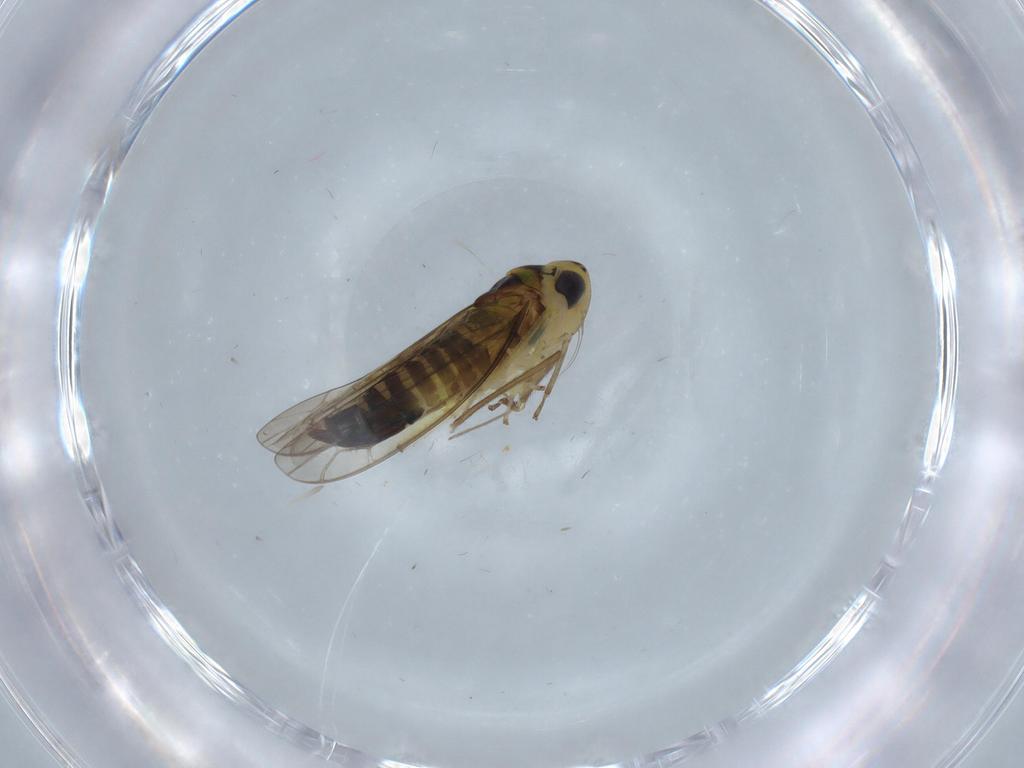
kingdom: Animalia
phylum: Arthropoda
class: Insecta
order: Hemiptera
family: Cicadellidae
